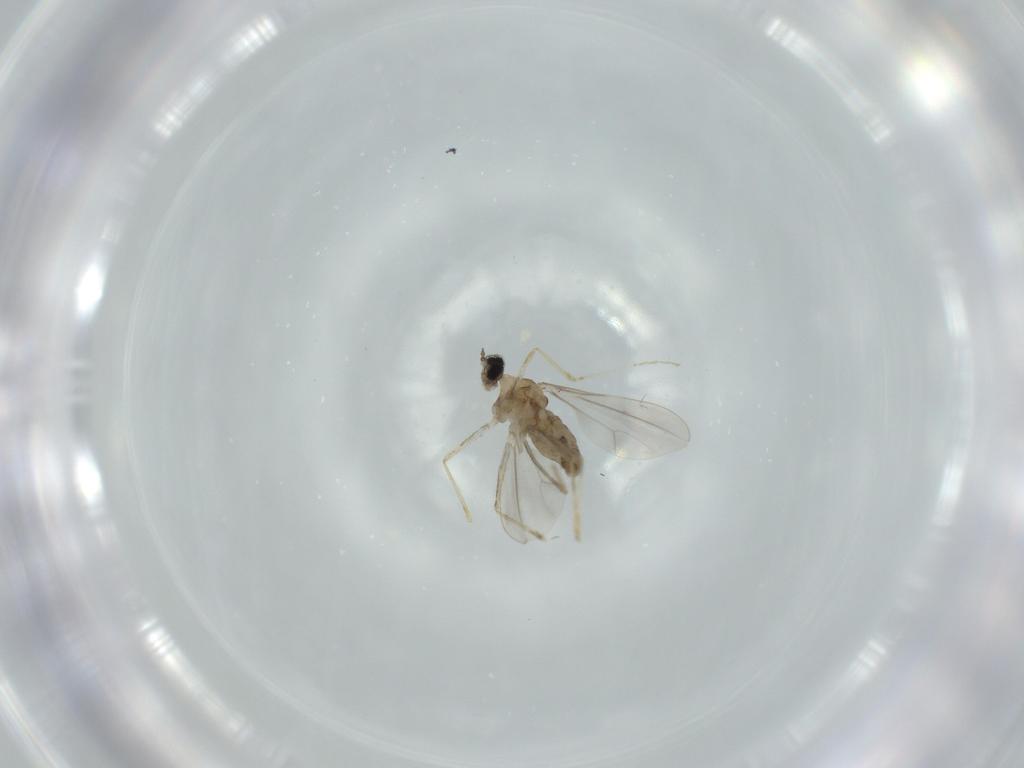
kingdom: Animalia
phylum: Arthropoda
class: Insecta
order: Diptera
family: Cecidomyiidae
